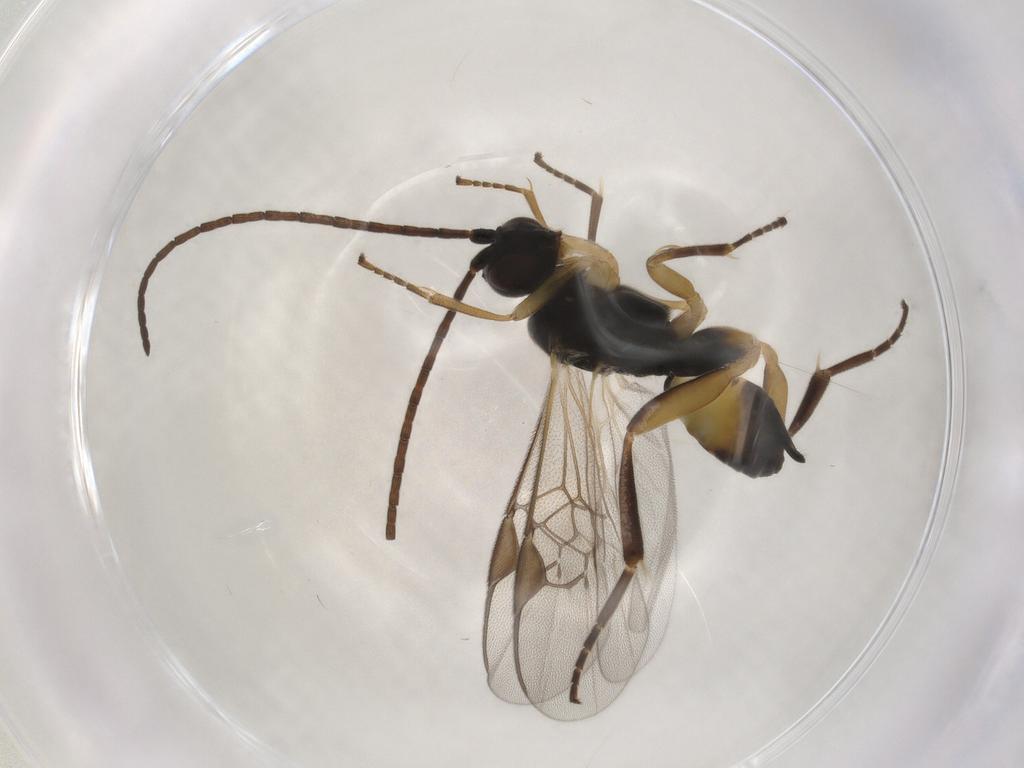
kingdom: Animalia
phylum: Arthropoda
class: Insecta
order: Hymenoptera
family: Braconidae
